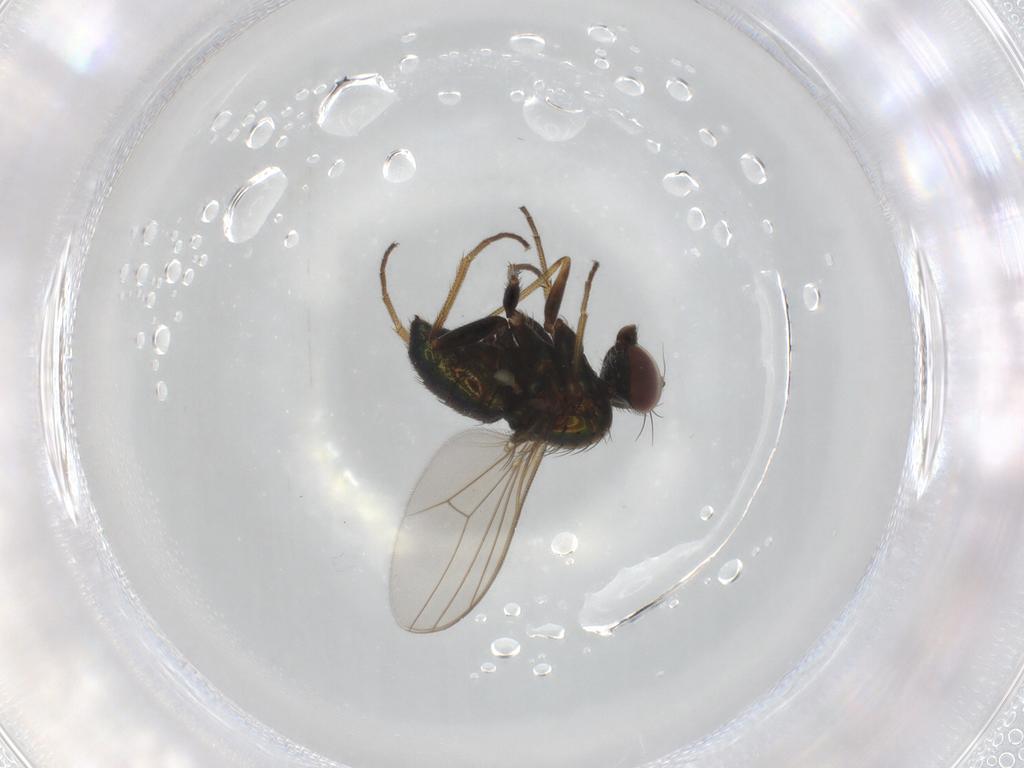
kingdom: Animalia
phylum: Arthropoda
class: Insecta
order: Diptera
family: Dolichopodidae
